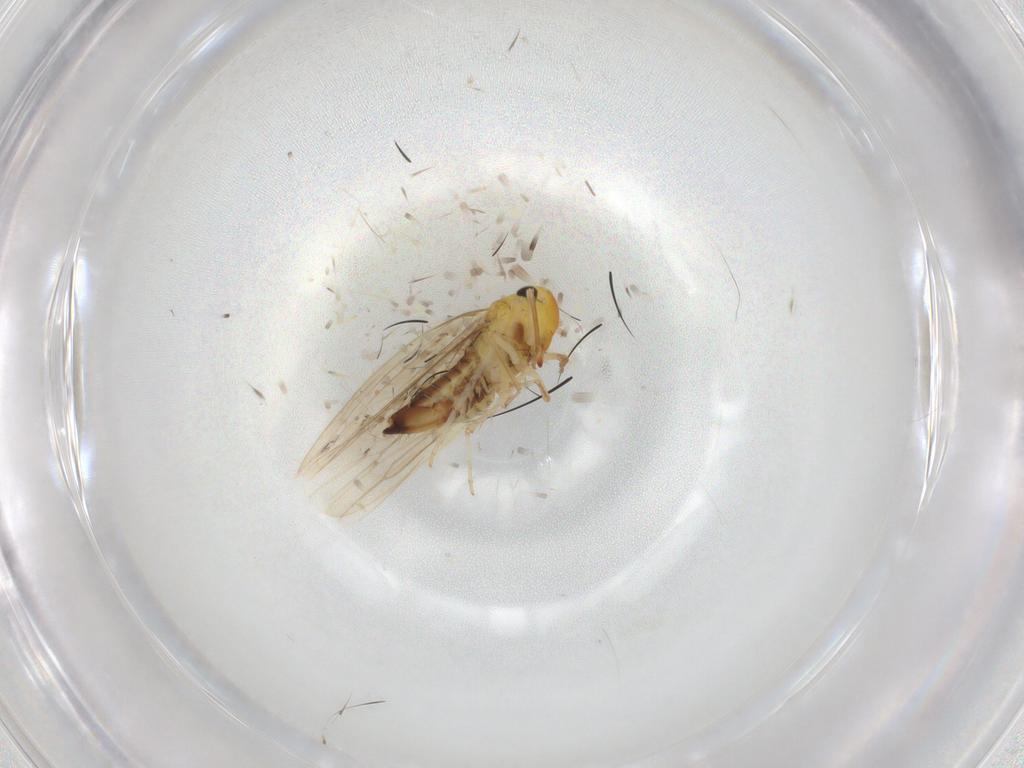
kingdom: Animalia
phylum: Arthropoda
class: Insecta
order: Hemiptera
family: Cicadellidae
